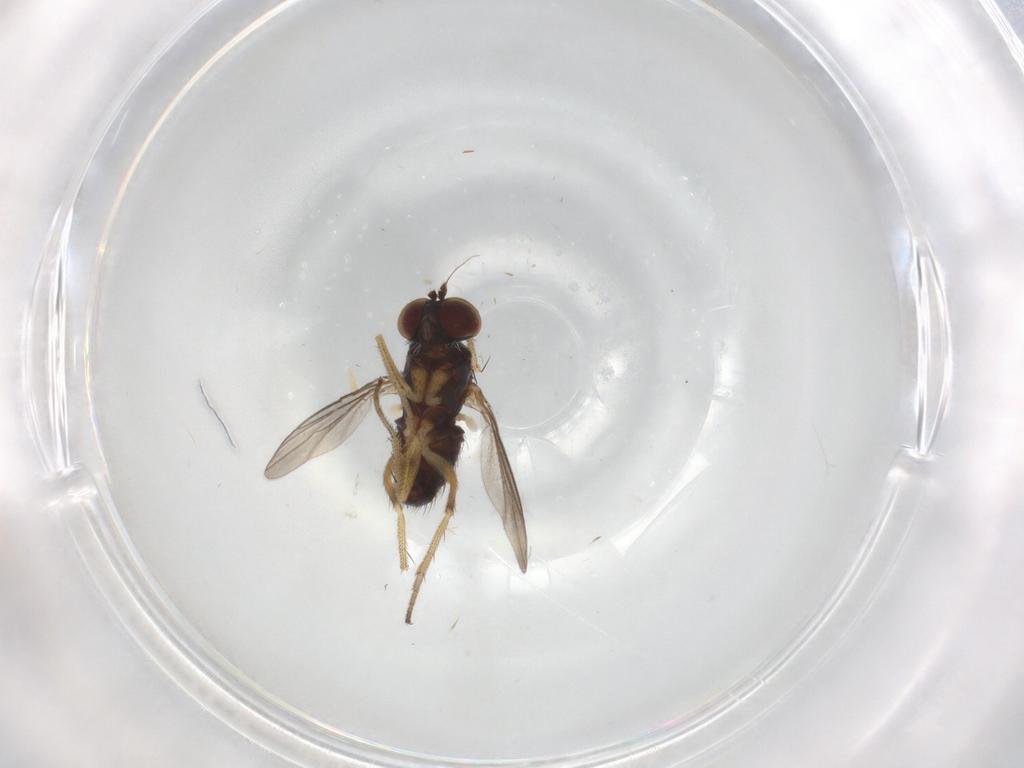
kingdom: Animalia
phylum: Arthropoda
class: Insecta
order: Diptera
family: Dolichopodidae
